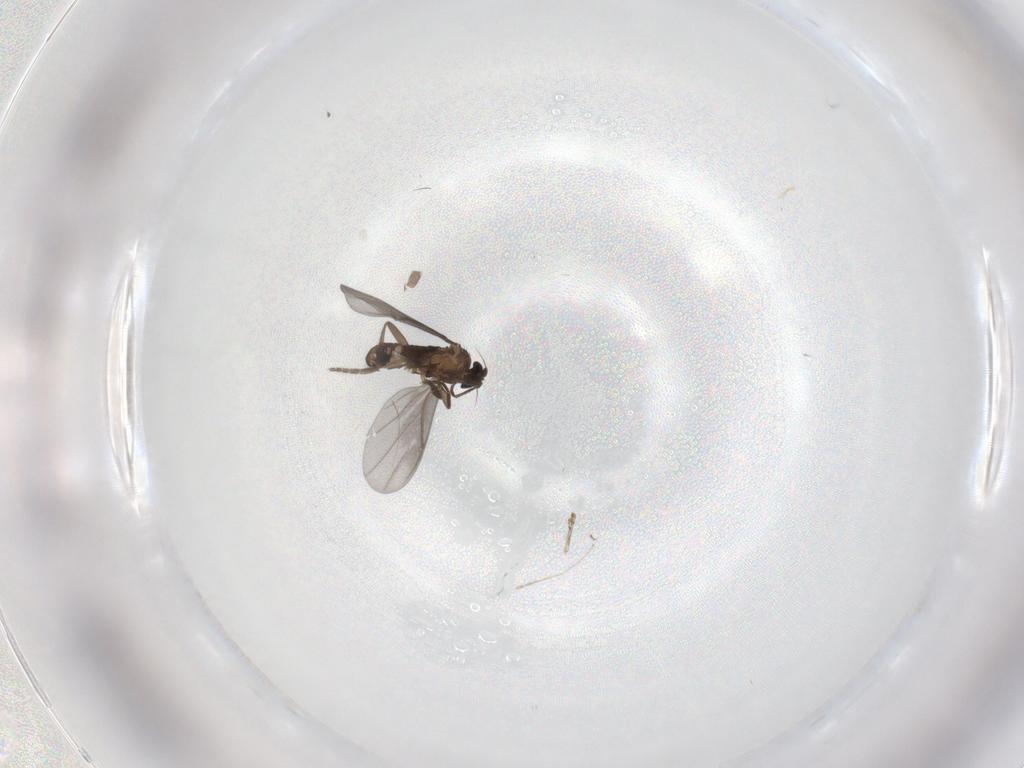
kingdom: Animalia
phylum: Arthropoda
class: Insecta
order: Diptera
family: Phoridae
